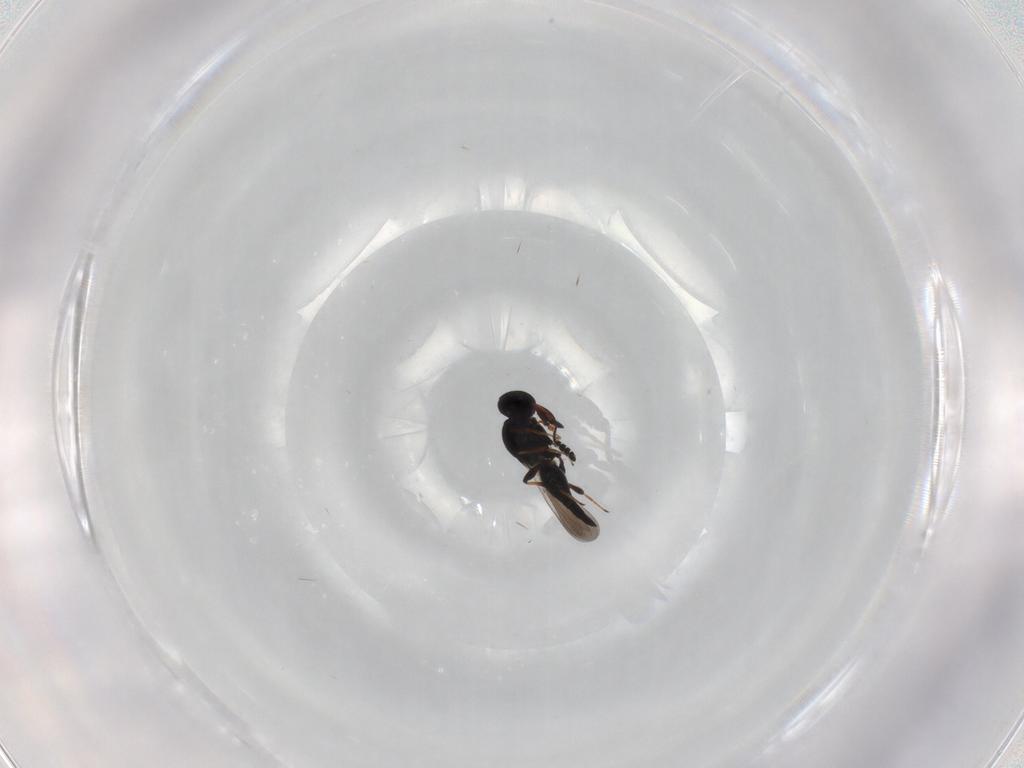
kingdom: Animalia
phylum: Arthropoda
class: Insecta
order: Hymenoptera
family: Platygastridae
